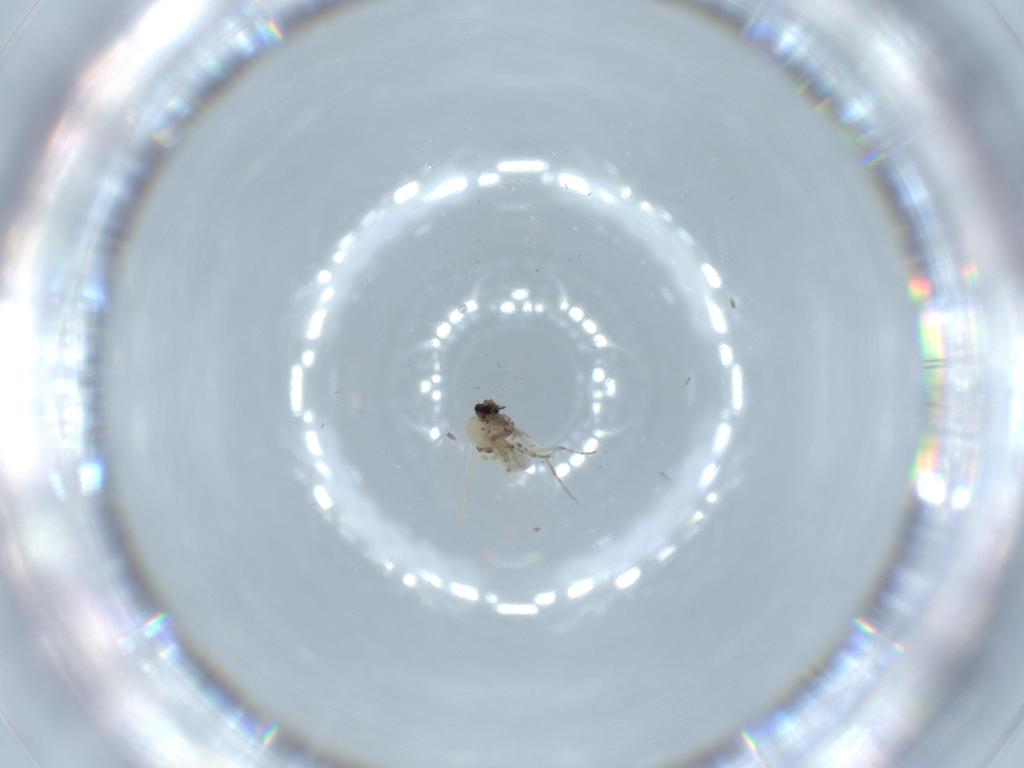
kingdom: Animalia
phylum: Arthropoda
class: Insecta
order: Diptera
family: Ceratopogonidae
